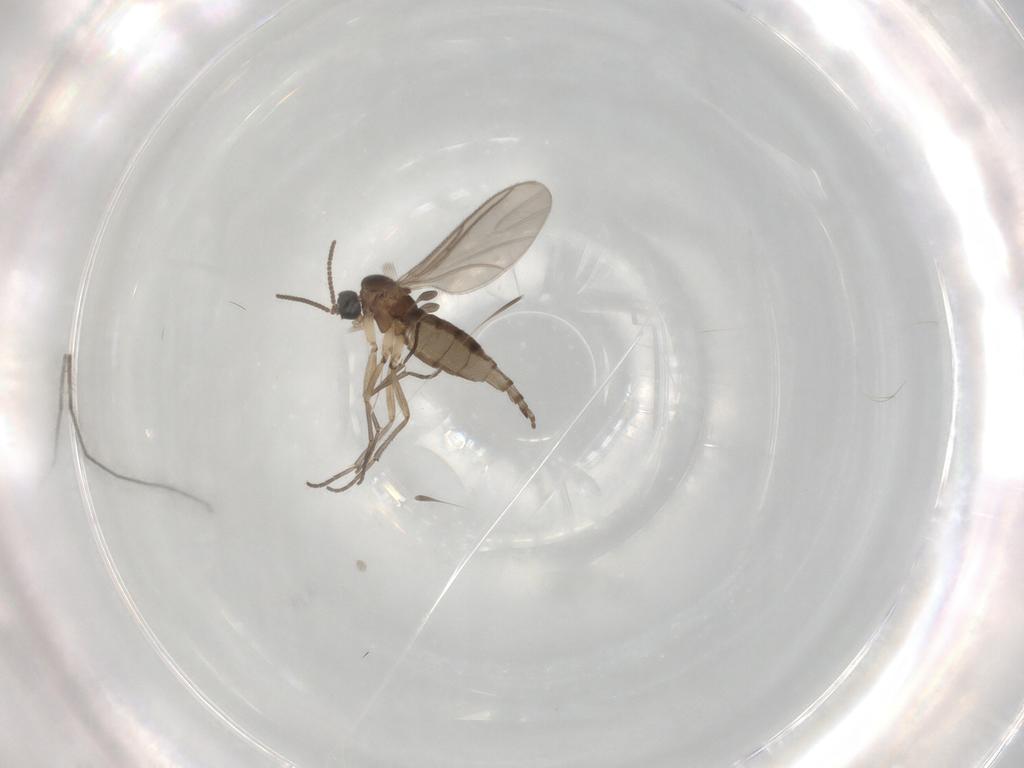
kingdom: Animalia
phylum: Arthropoda
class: Insecta
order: Diptera
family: Sciaridae
